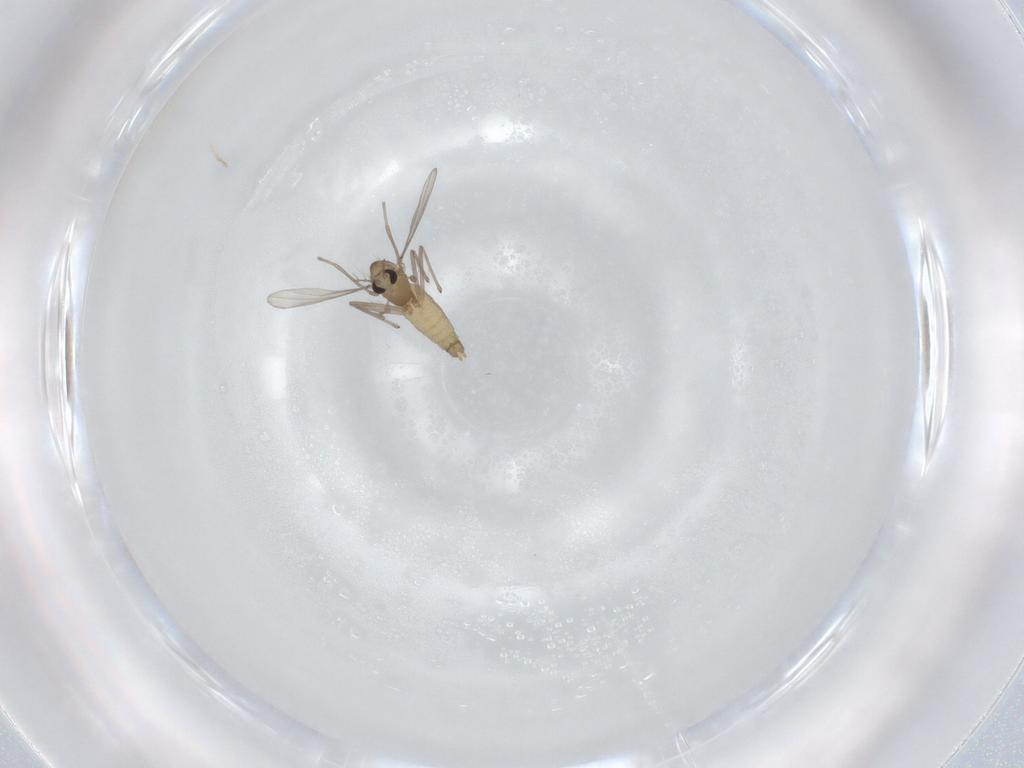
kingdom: Animalia
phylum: Arthropoda
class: Insecta
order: Diptera
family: Chironomidae
